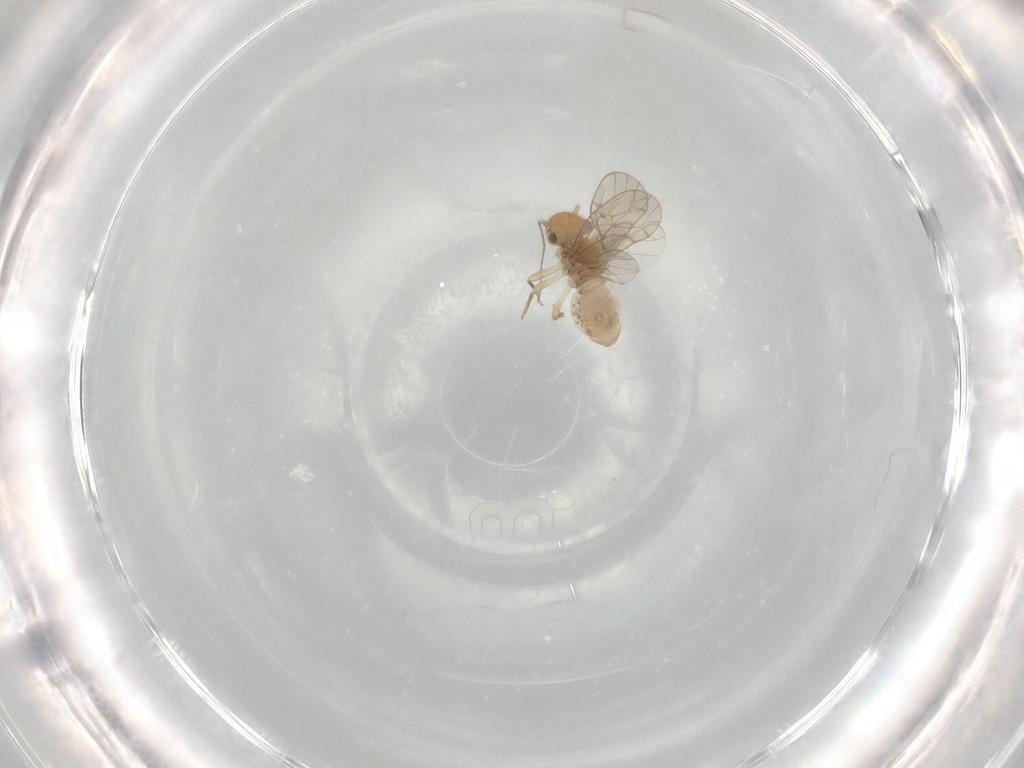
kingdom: Animalia
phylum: Arthropoda
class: Insecta
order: Psocodea
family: Ectopsocidae
